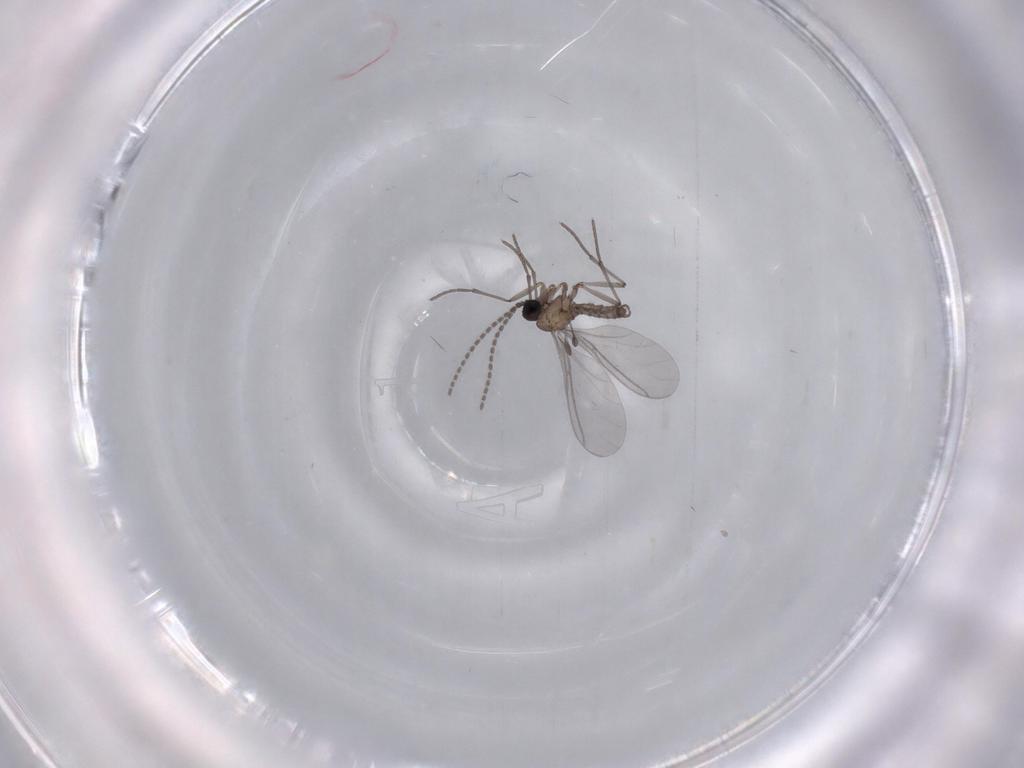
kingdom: Animalia
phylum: Arthropoda
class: Insecta
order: Diptera
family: Sciaridae
